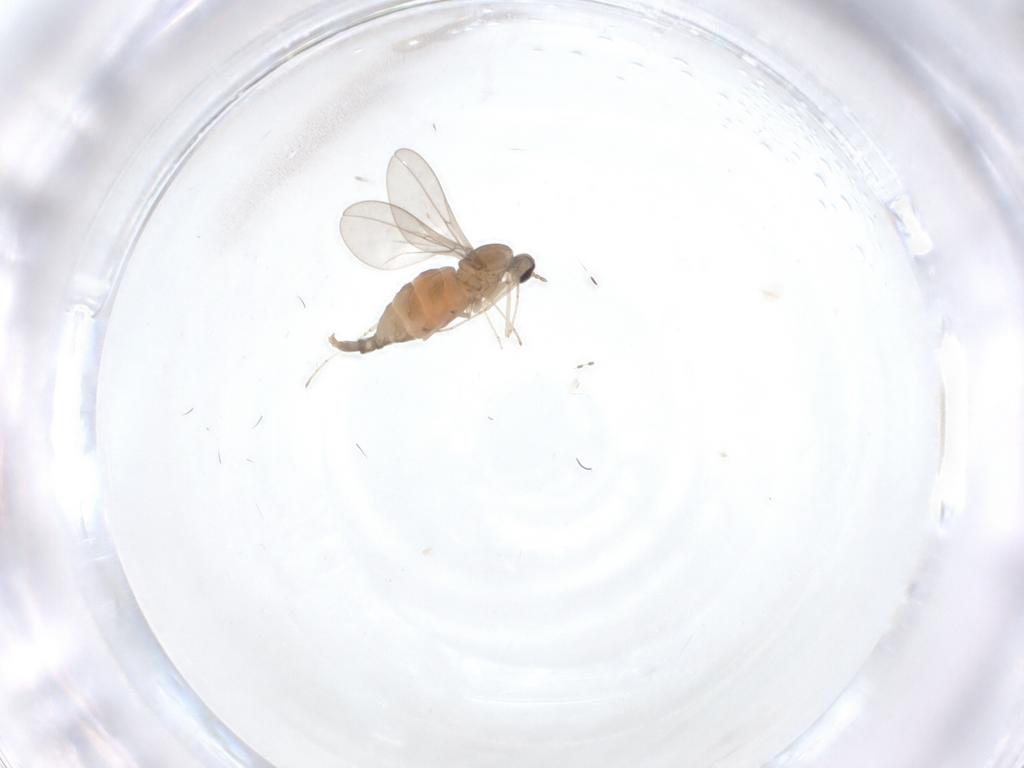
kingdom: Animalia
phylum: Arthropoda
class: Insecta
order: Diptera
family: Cecidomyiidae
